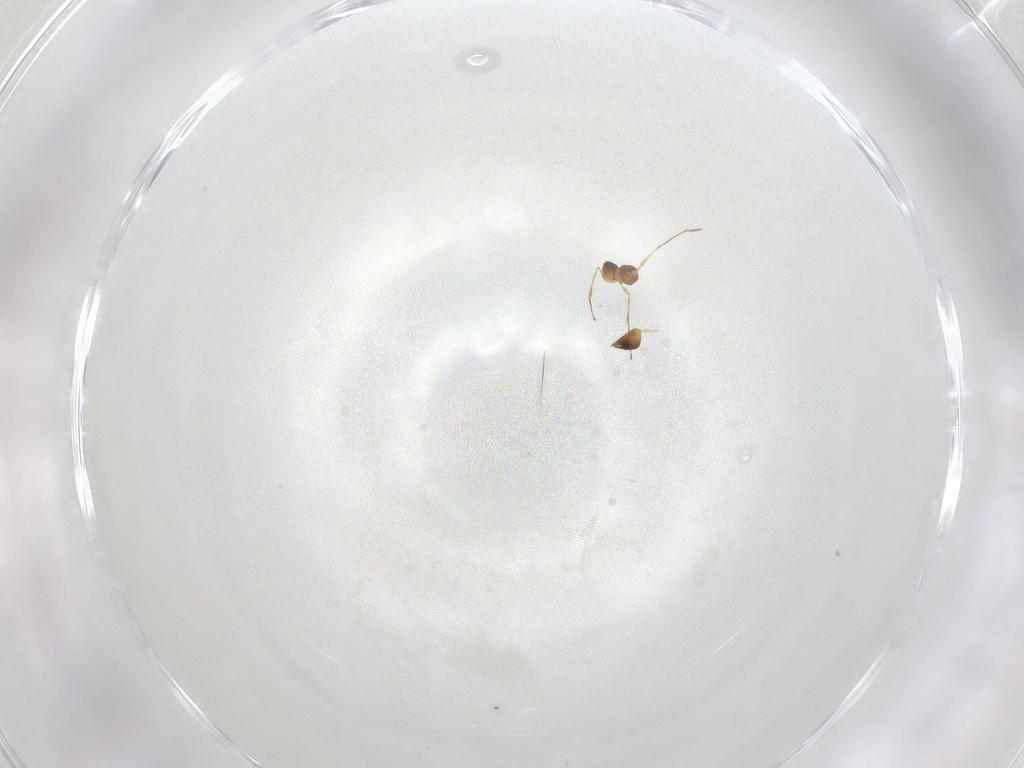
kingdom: Animalia
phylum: Arthropoda
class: Insecta
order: Hymenoptera
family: Mymaridae
